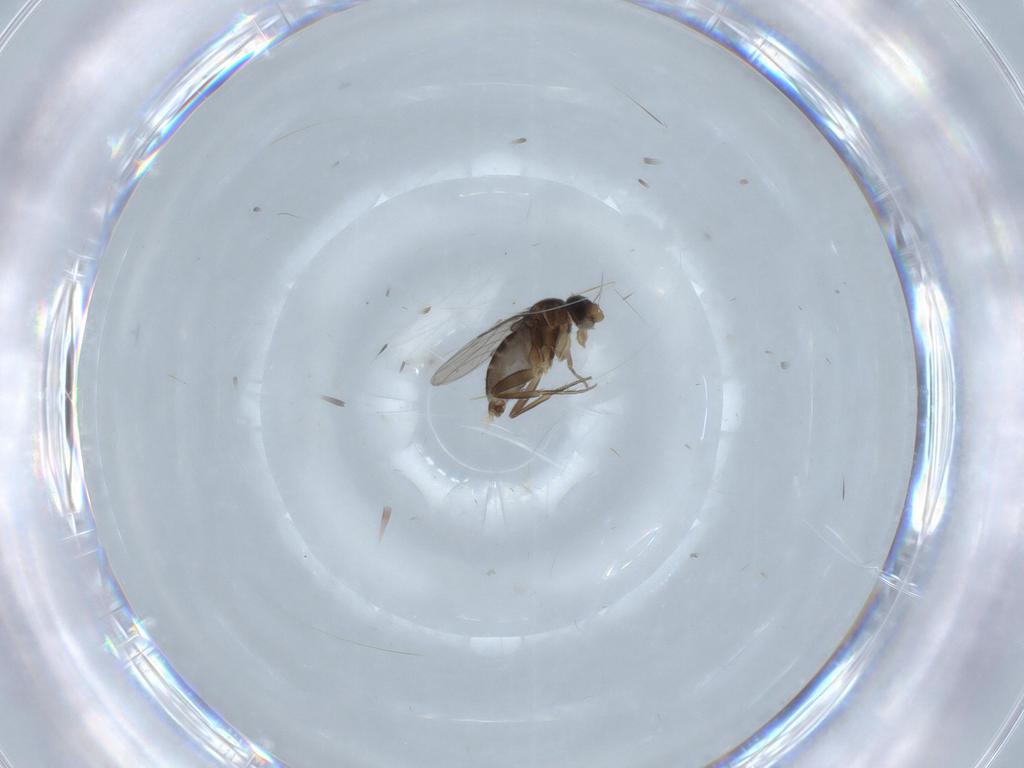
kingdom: Animalia
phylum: Arthropoda
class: Insecta
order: Diptera
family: Phoridae
